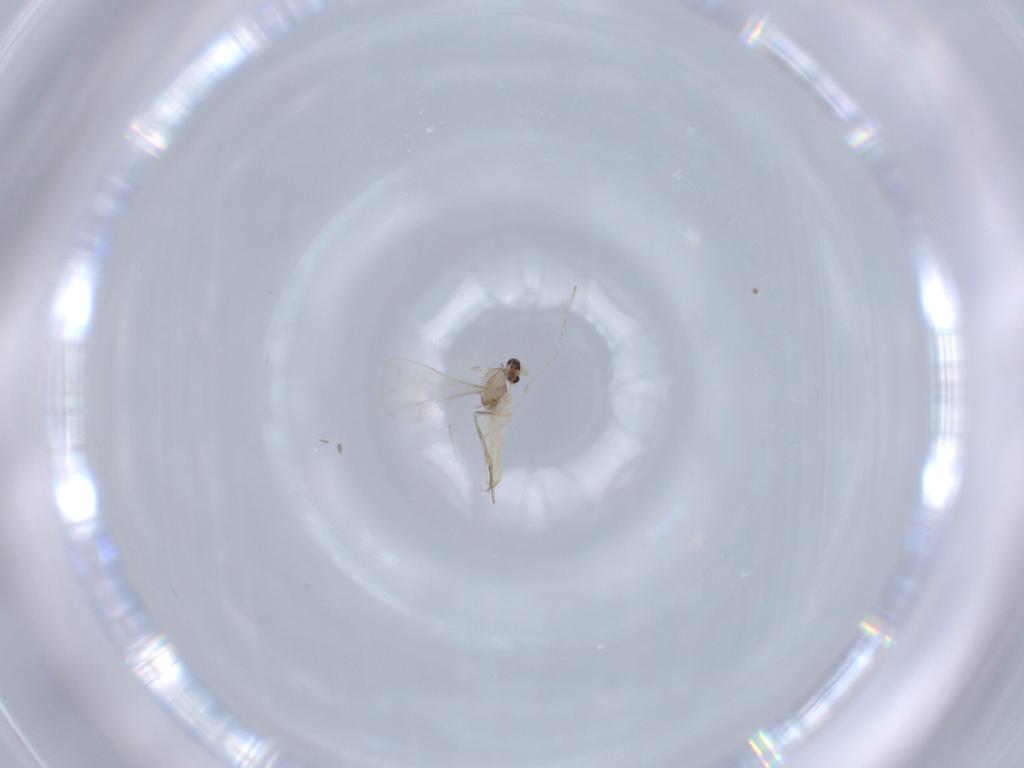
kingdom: Animalia
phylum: Arthropoda
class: Insecta
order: Diptera
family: Cecidomyiidae
